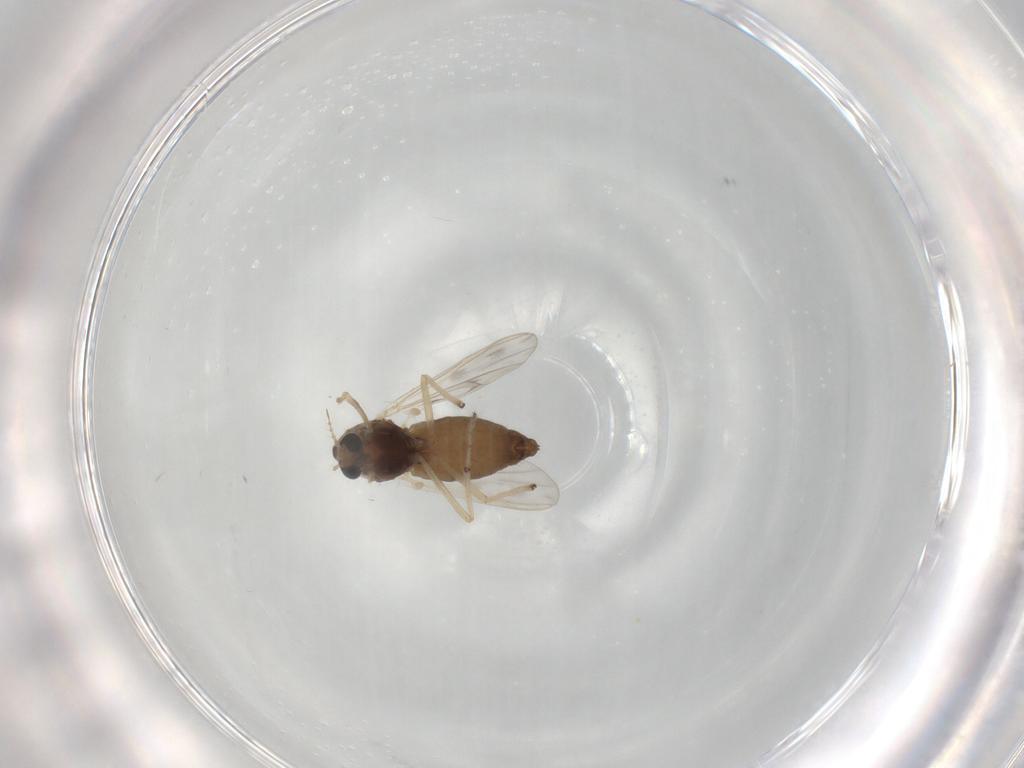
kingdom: Animalia
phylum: Arthropoda
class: Insecta
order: Diptera
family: Chironomidae
